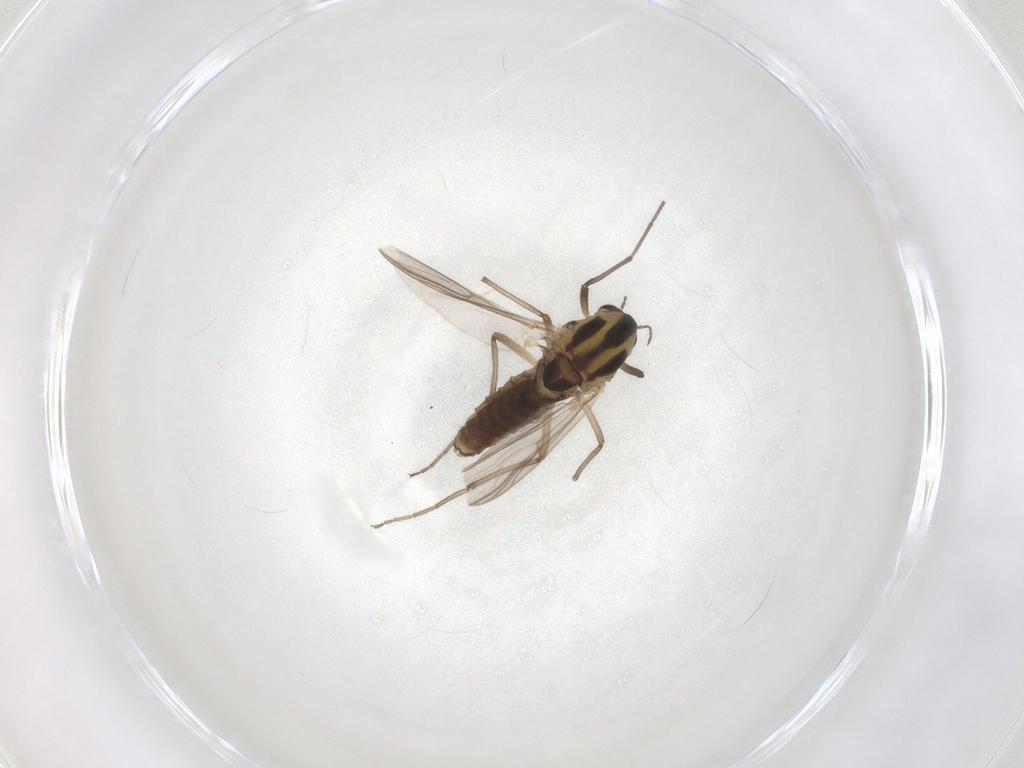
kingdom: Animalia
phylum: Arthropoda
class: Insecta
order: Diptera
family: Chironomidae
